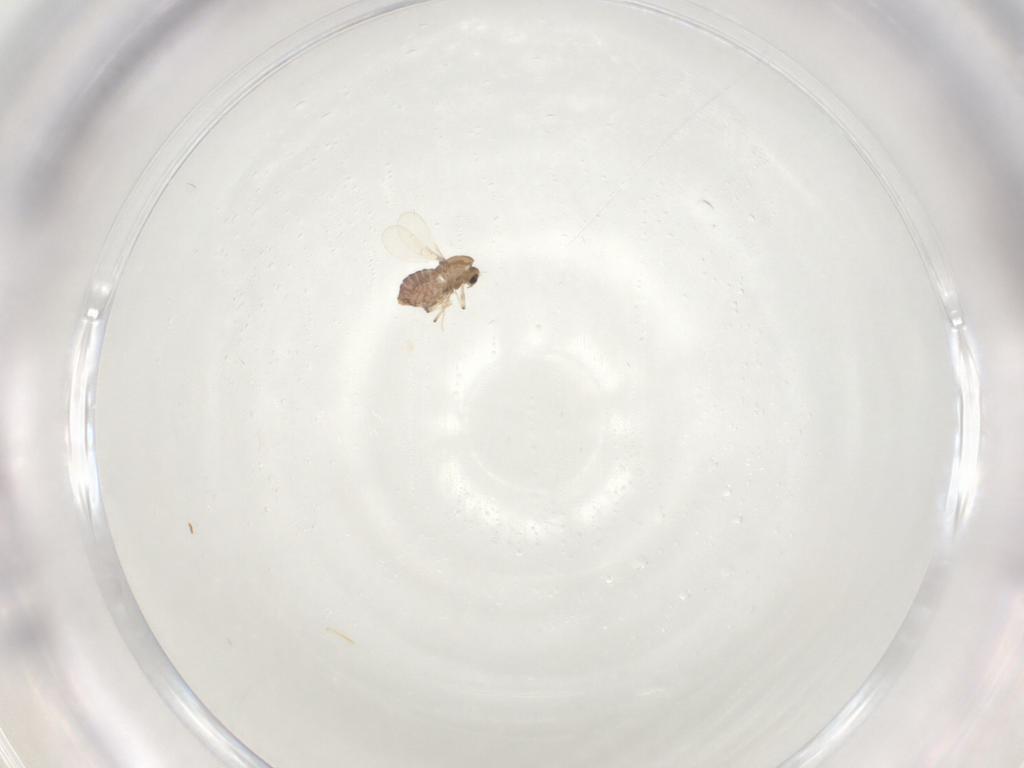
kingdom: Animalia
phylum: Arthropoda
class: Insecta
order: Diptera
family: Chironomidae
